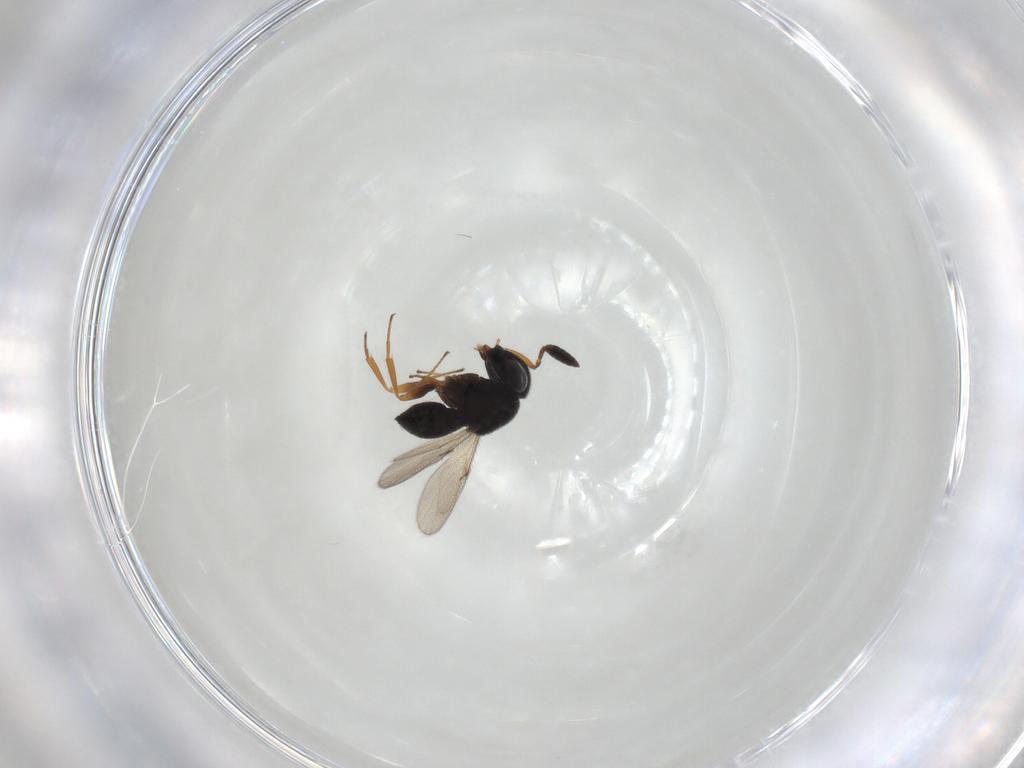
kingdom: Animalia
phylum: Arthropoda
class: Insecta
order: Hymenoptera
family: Scelionidae
